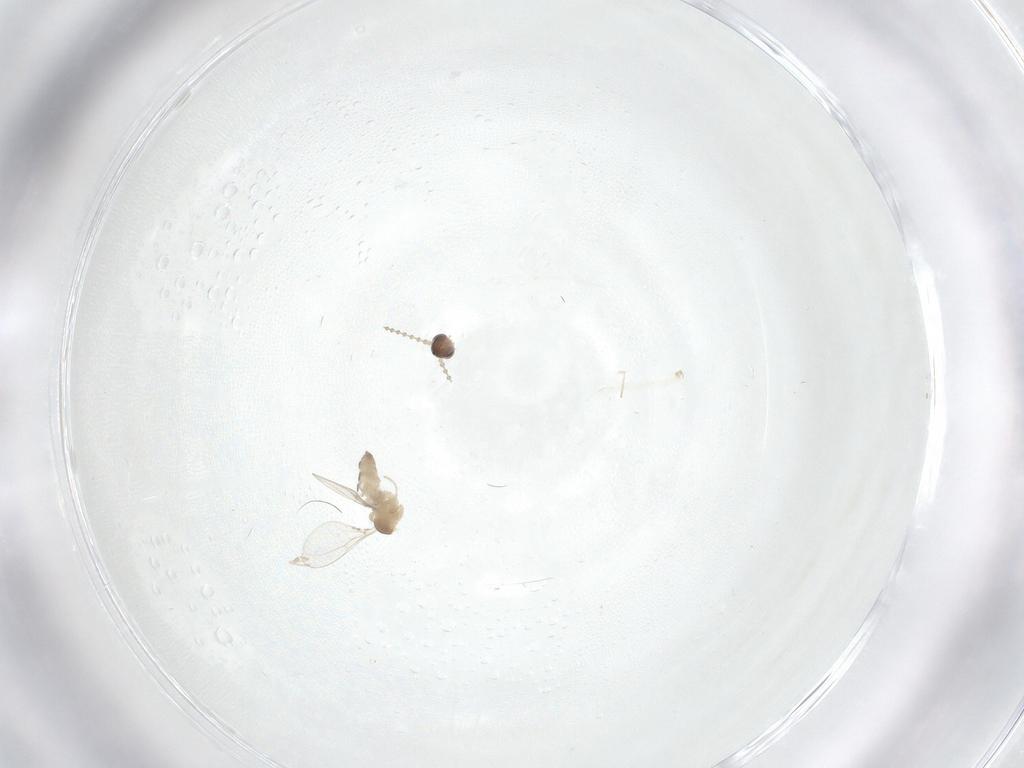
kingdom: Animalia
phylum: Arthropoda
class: Insecta
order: Diptera
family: Cecidomyiidae
